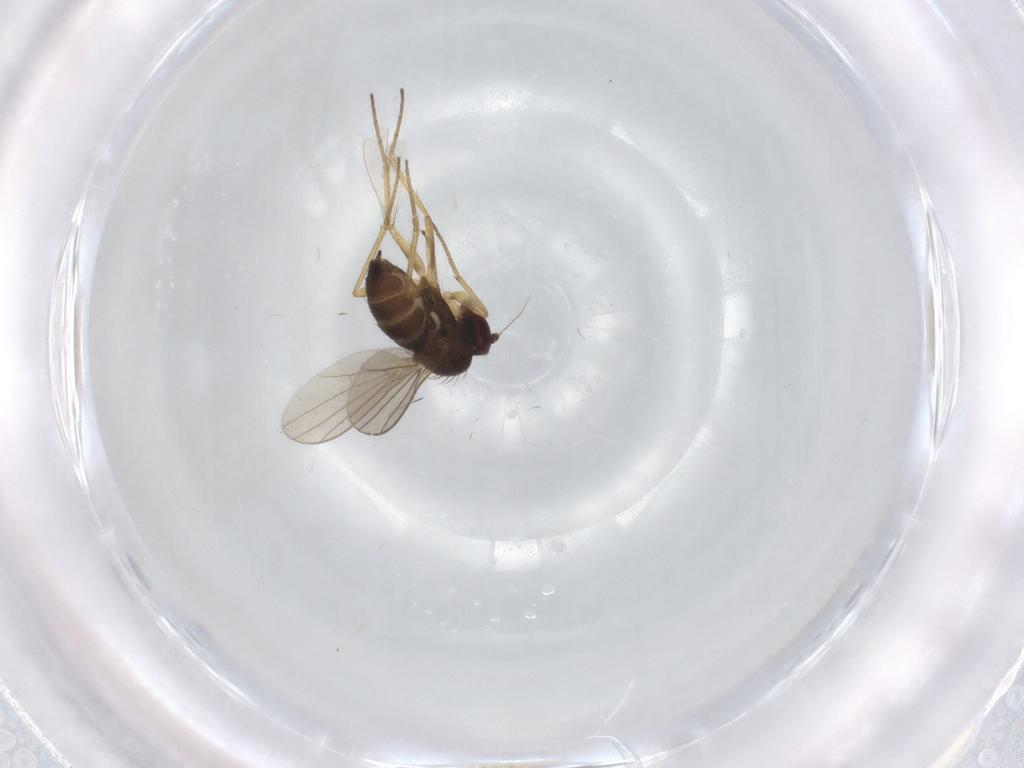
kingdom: Animalia
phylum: Arthropoda
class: Insecta
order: Diptera
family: Dolichopodidae
